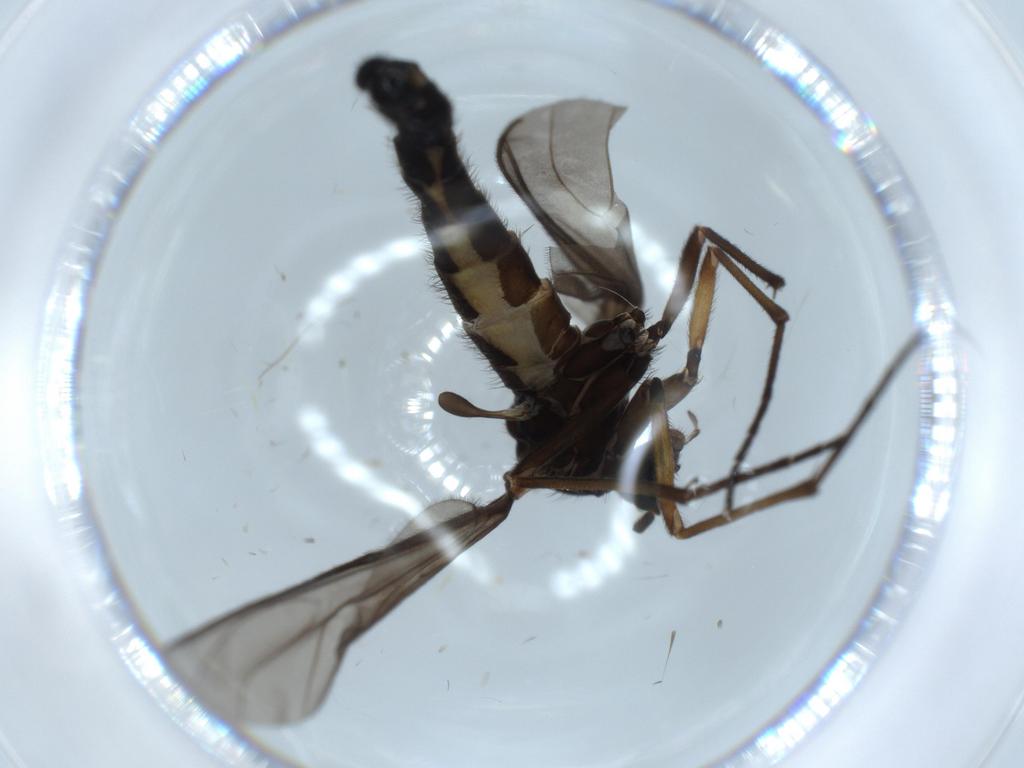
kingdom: Animalia
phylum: Arthropoda
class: Insecta
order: Diptera
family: Sciaridae
